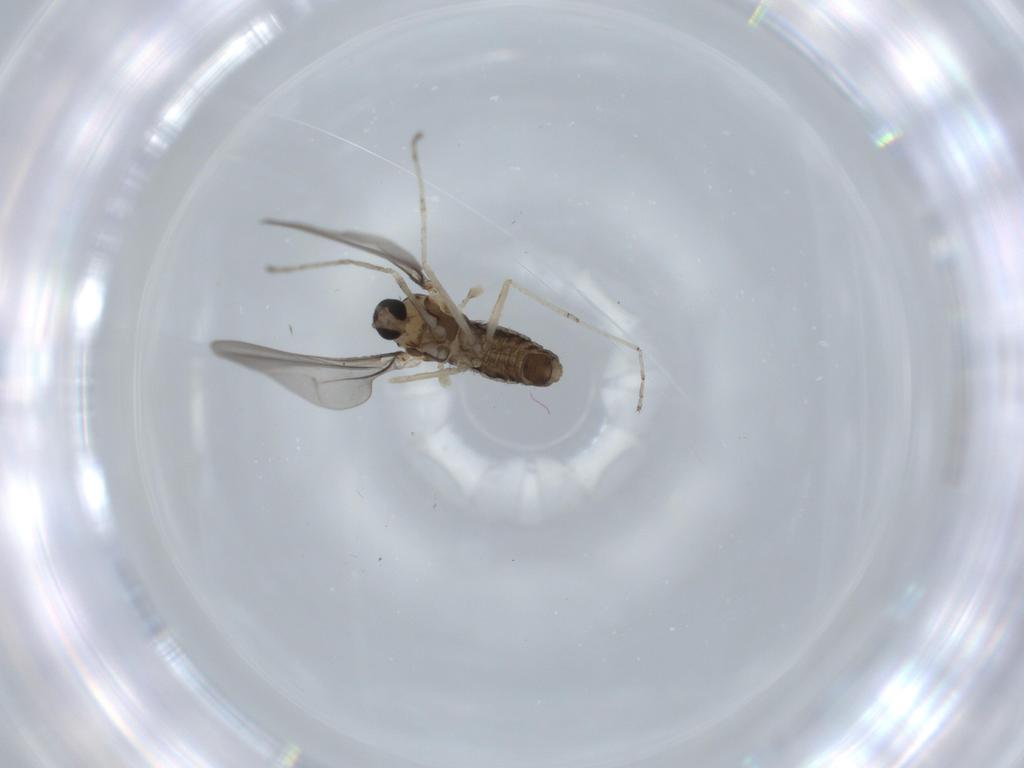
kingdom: Animalia
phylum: Arthropoda
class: Insecta
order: Diptera
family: Cecidomyiidae
